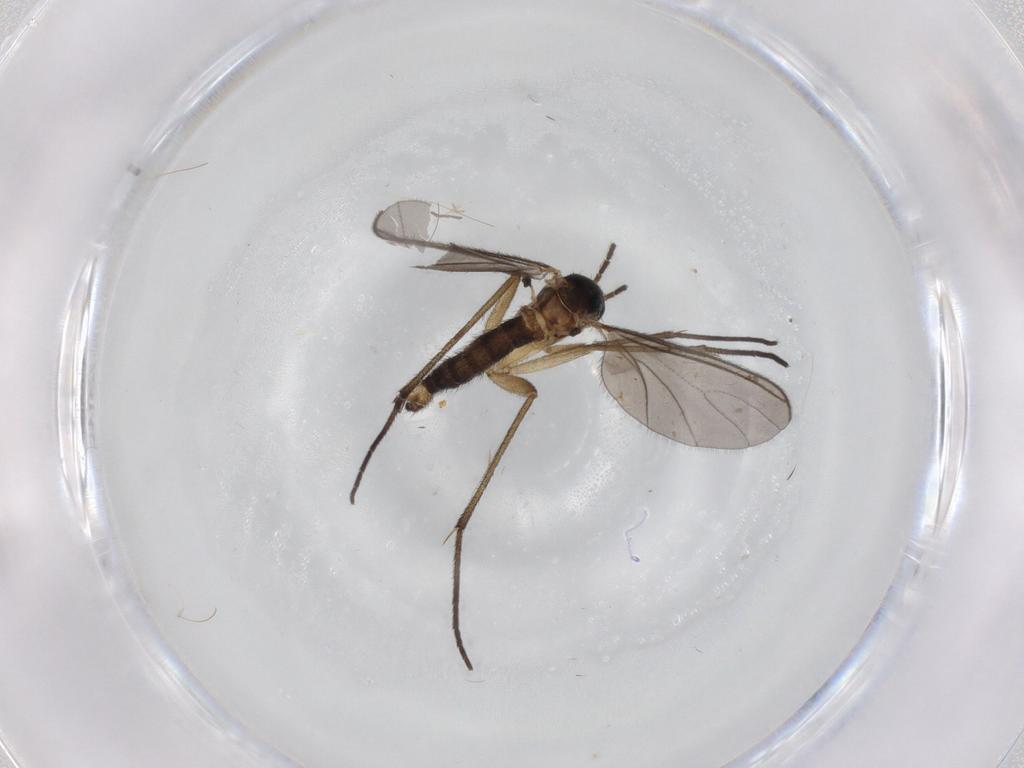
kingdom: Animalia
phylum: Arthropoda
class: Insecta
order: Diptera
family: Sciaridae
